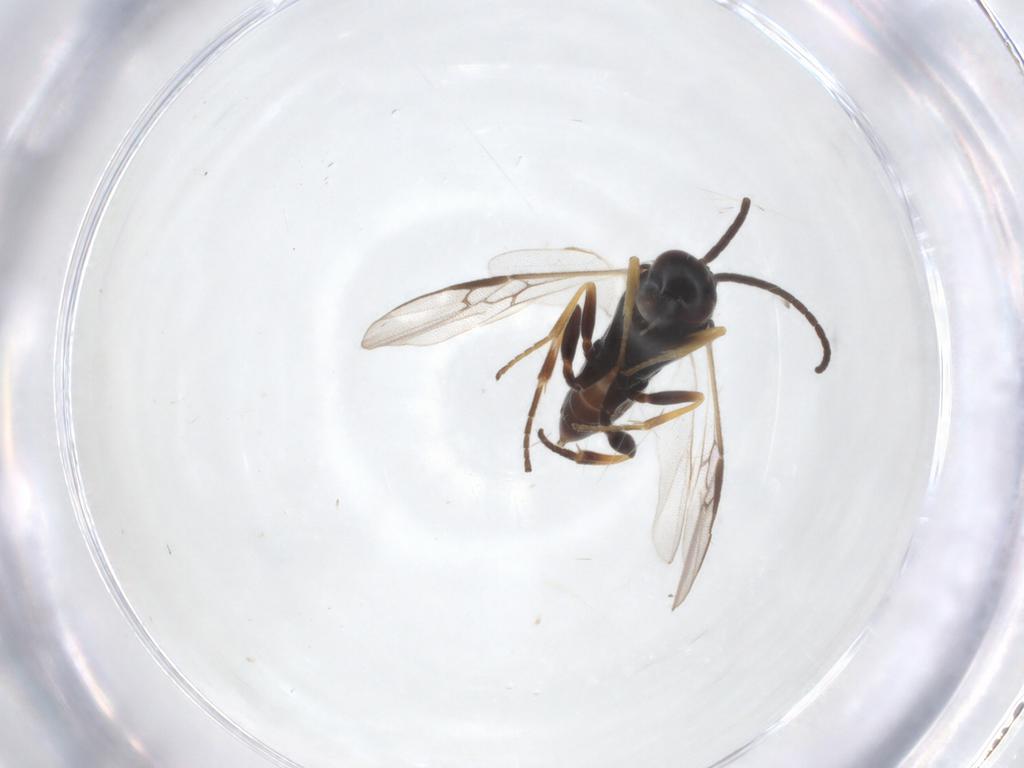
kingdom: Animalia
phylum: Arthropoda
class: Insecta
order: Hymenoptera
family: Braconidae
